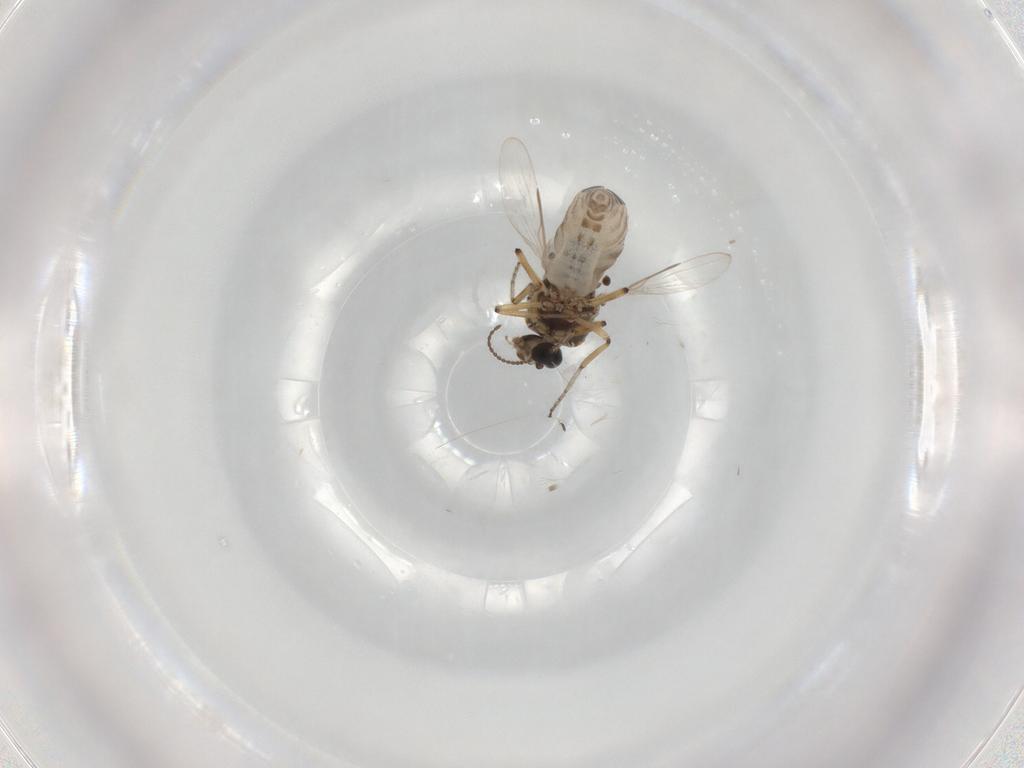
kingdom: Animalia
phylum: Arthropoda
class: Insecta
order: Diptera
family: Ceratopogonidae
